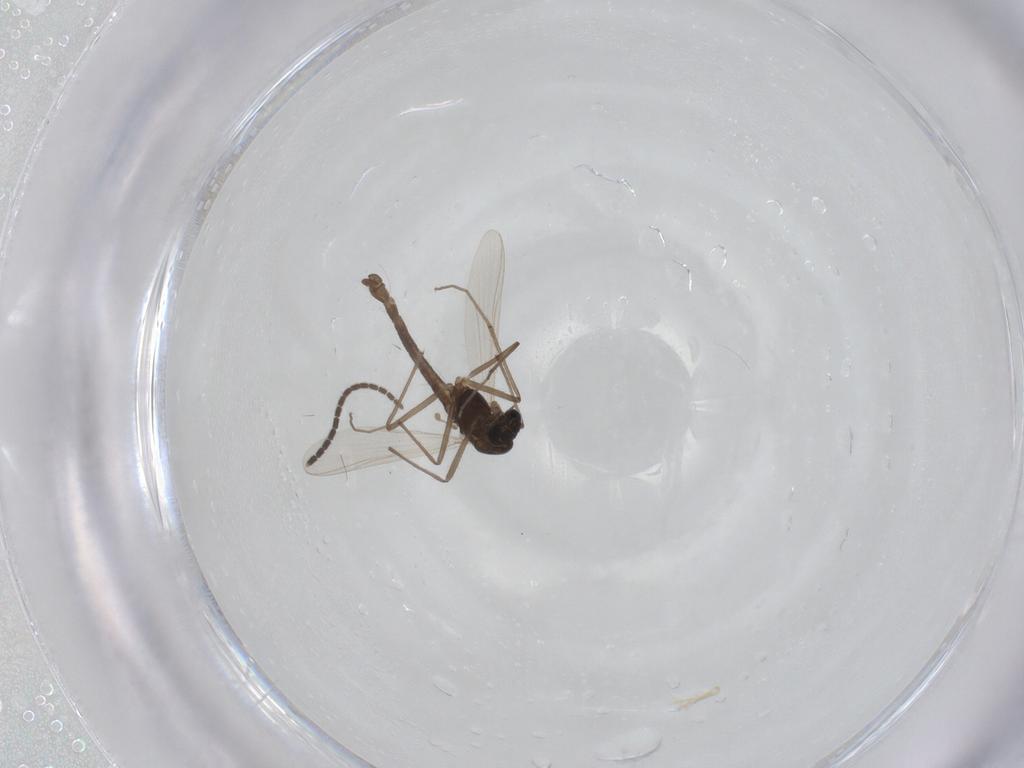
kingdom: Animalia
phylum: Arthropoda
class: Insecta
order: Diptera
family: Chironomidae
